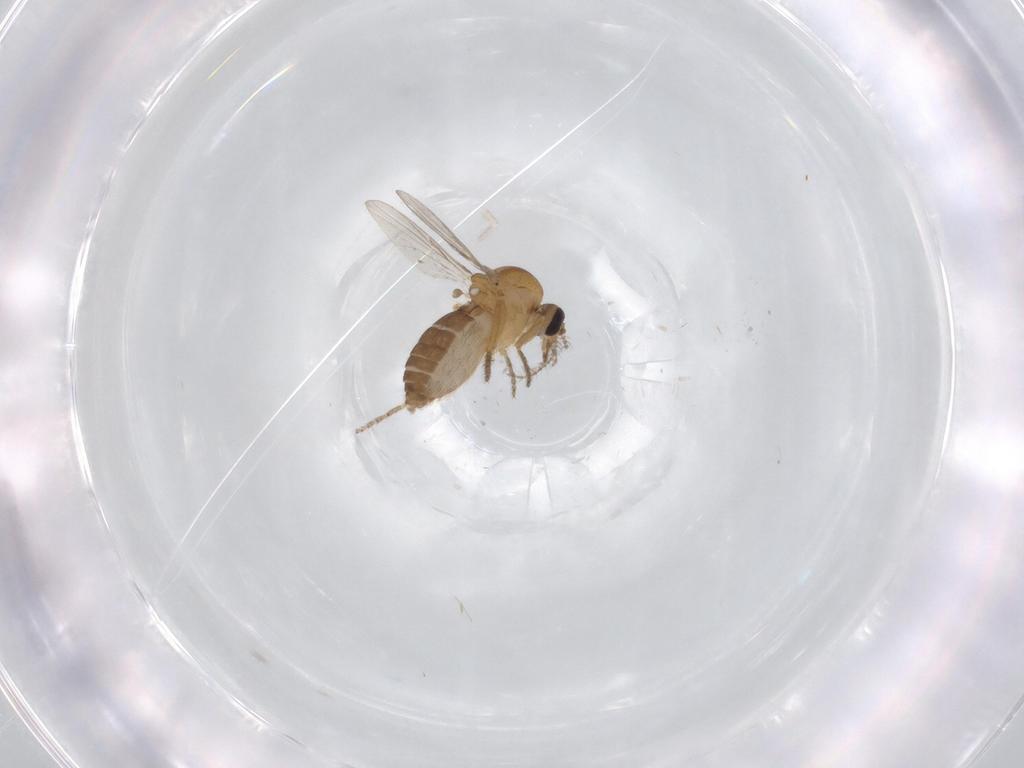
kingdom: Animalia
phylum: Arthropoda
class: Insecta
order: Diptera
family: Ceratopogonidae
